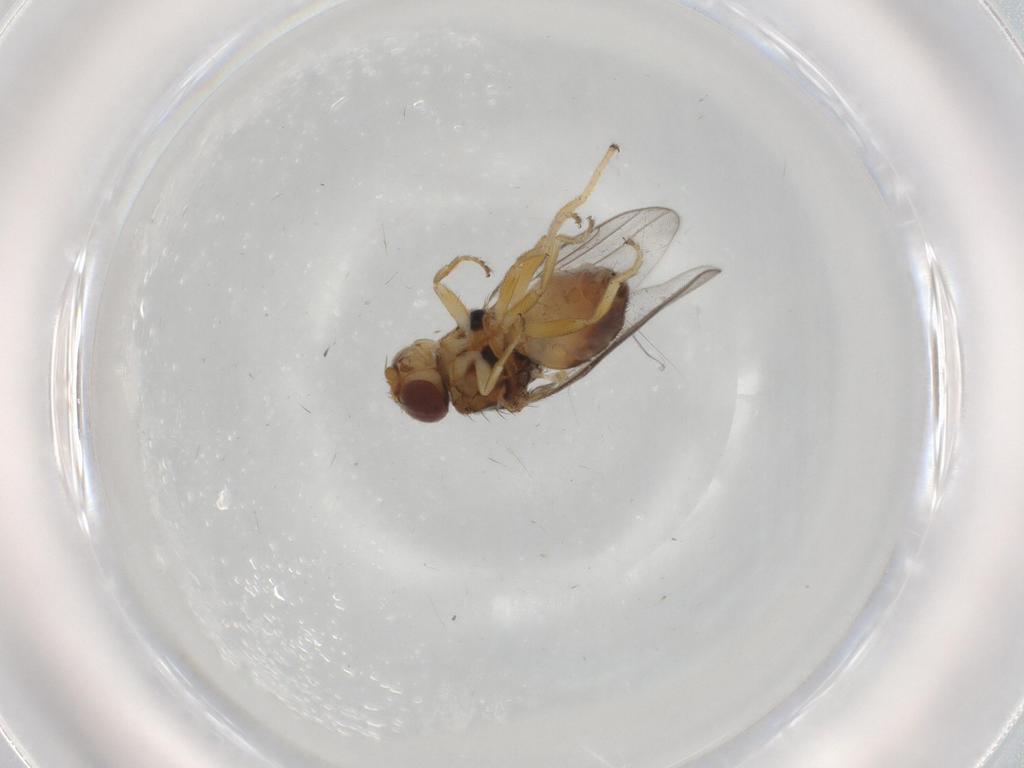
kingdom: Animalia
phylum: Arthropoda
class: Insecta
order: Diptera
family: Chloropidae
